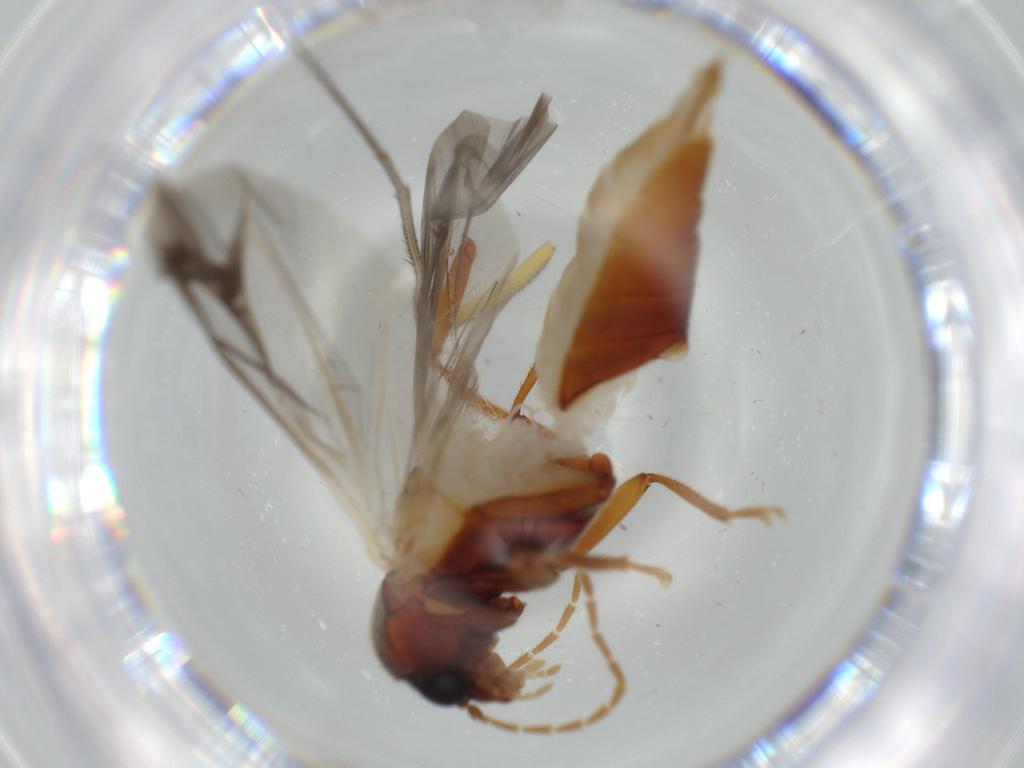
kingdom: Animalia
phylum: Arthropoda
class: Insecta
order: Coleoptera
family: Ptilodactylidae
